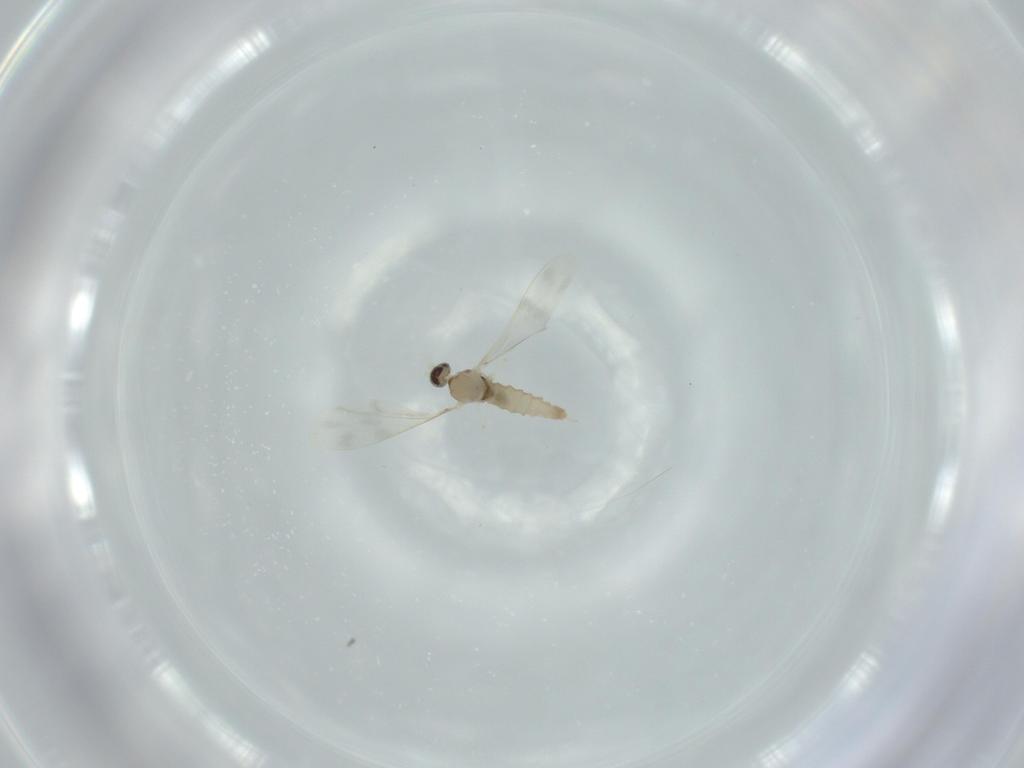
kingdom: Animalia
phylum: Arthropoda
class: Insecta
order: Diptera
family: Cecidomyiidae
